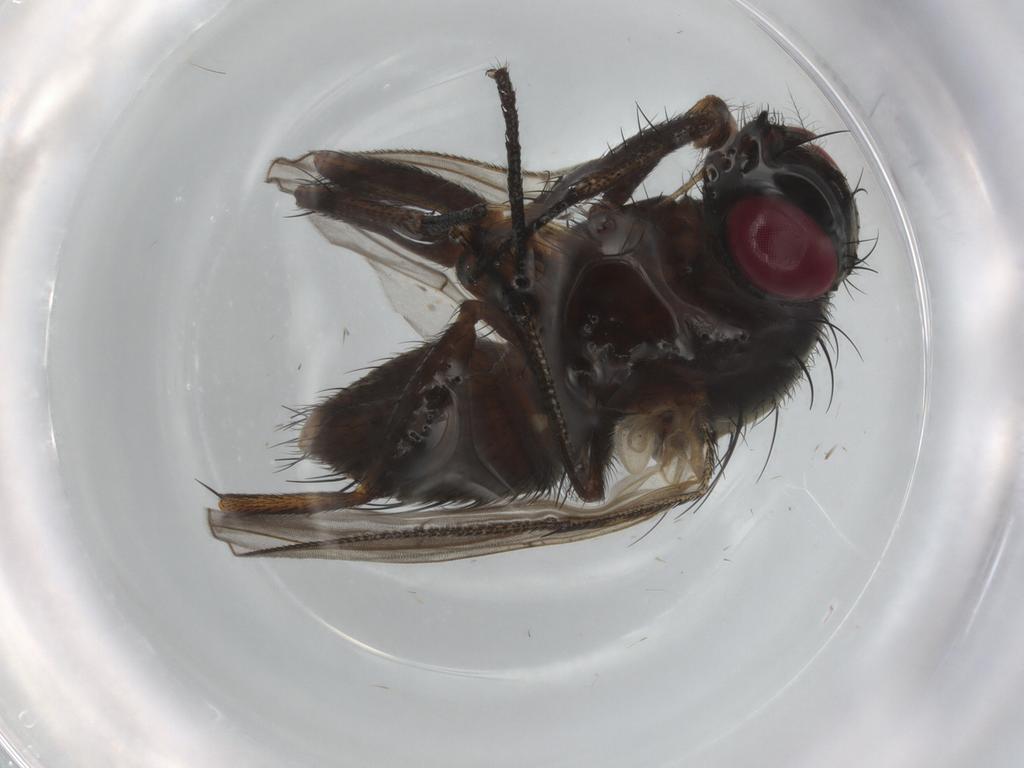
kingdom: Animalia
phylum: Arthropoda
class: Insecta
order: Diptera
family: Muscidae
